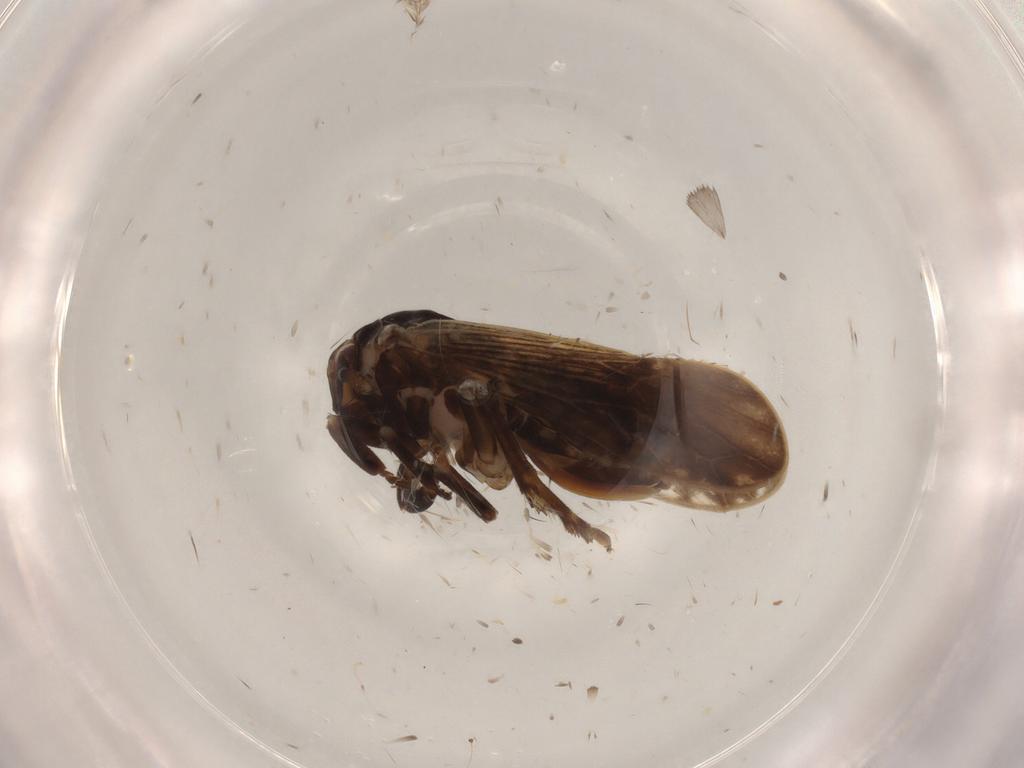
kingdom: Animalia
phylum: Arthropoda
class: Insecta
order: Hemiptera
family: Delphacidae
